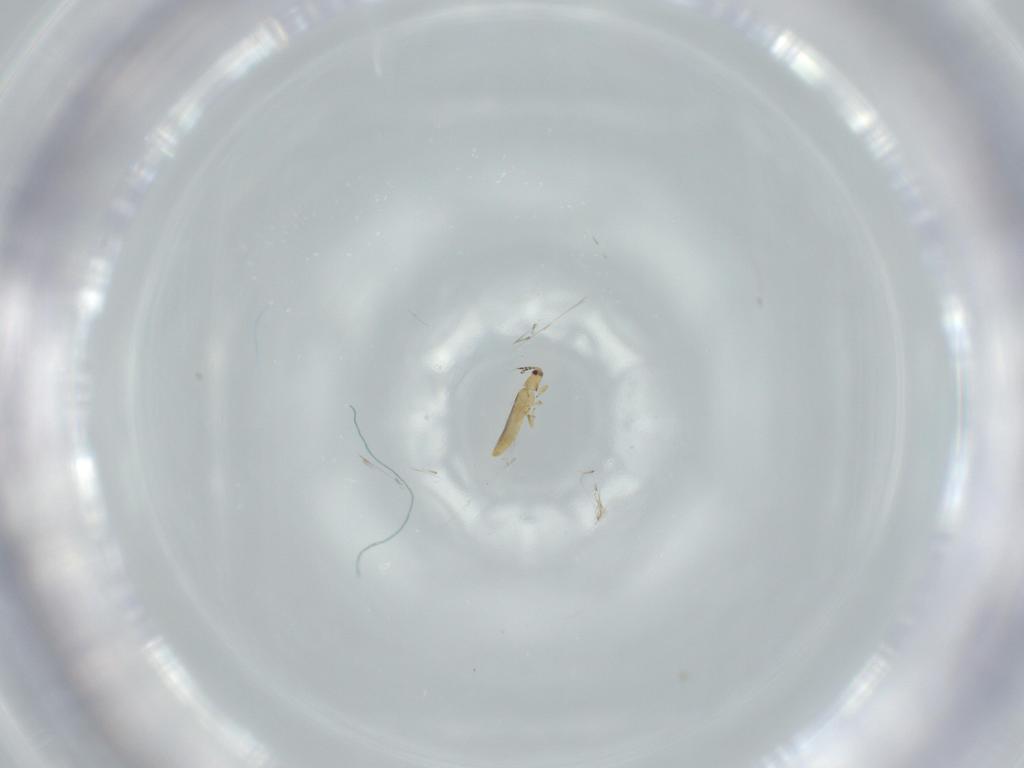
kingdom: Animalia
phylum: Arthropoda
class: Insecta
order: Thysanoptera
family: Thripidae
